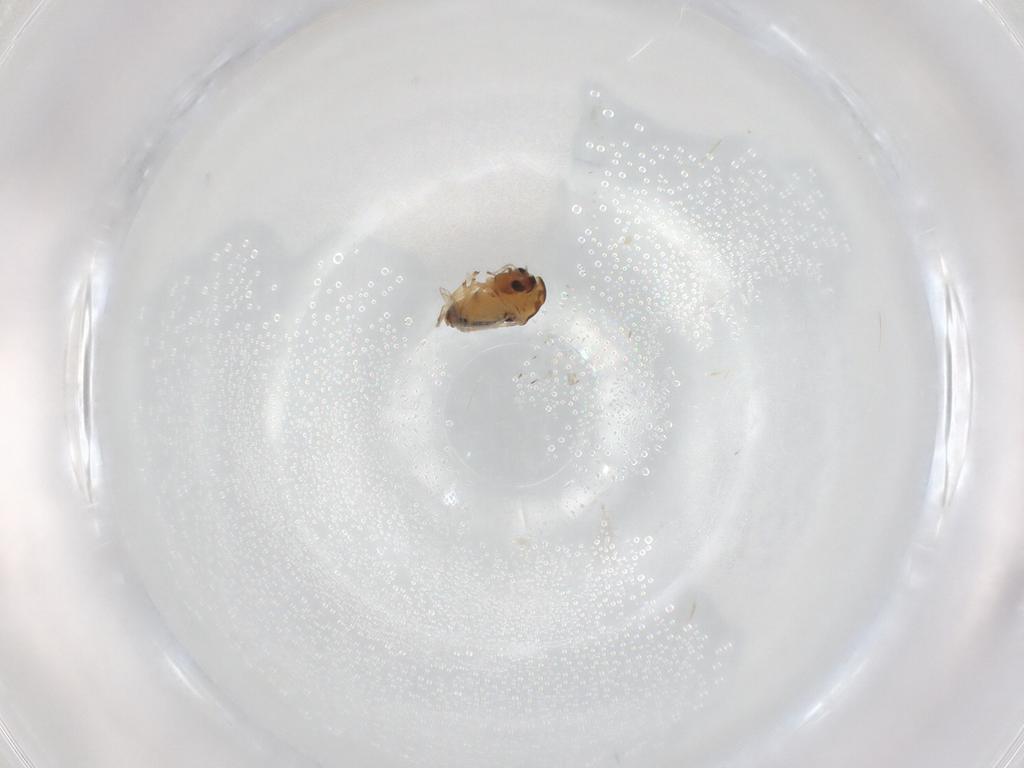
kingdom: Animalia
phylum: Arthropoda
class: Insecta
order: Diptera
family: Chironomidae
